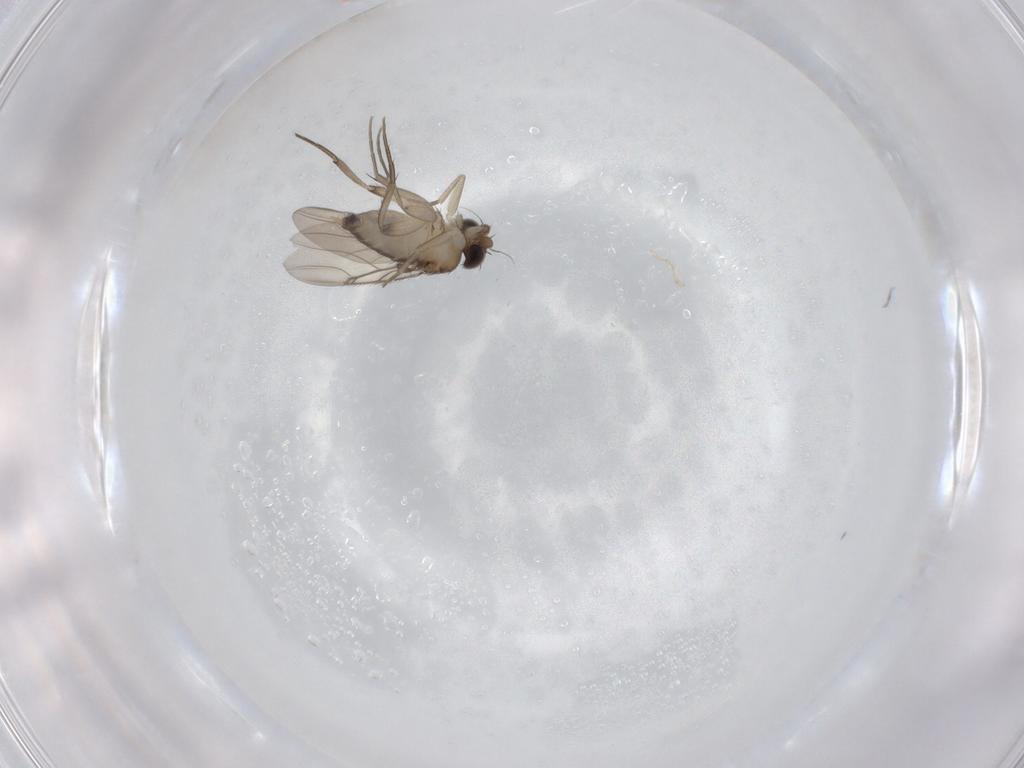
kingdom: Animalia
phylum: Arthropoda
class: Insecta
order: Diptera
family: Phoridae
